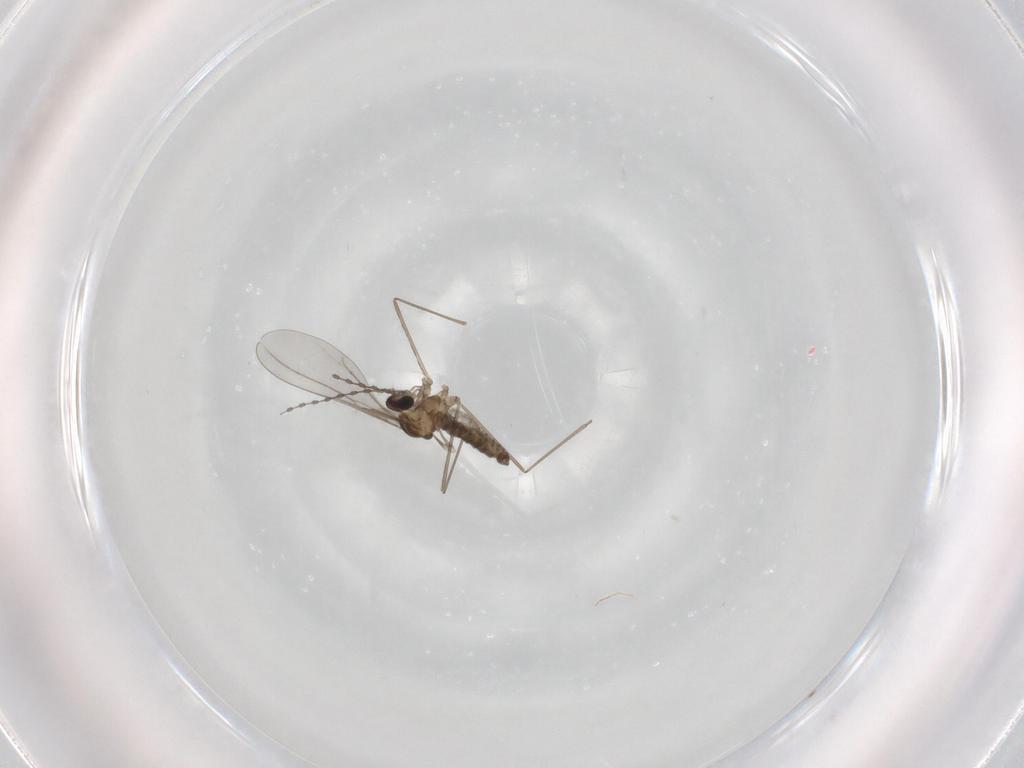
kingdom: Animalia
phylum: Arthropoda
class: Insecta
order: Diptera
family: Cecidomyiidae
